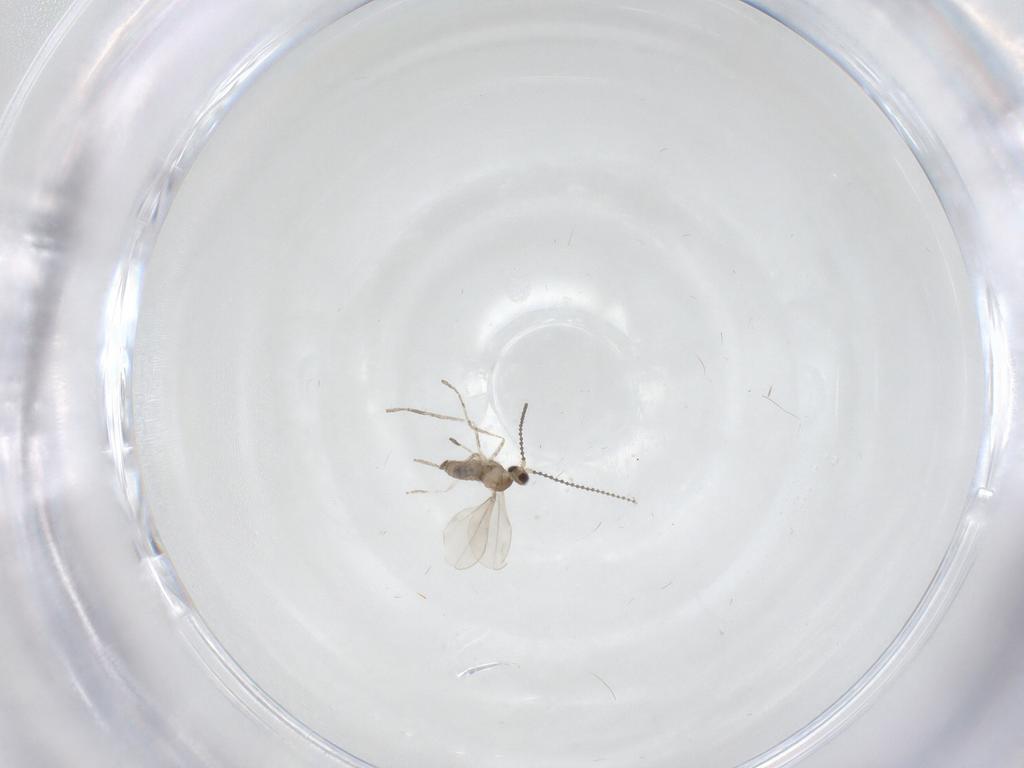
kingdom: Animalia
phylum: Arthropoda
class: Insecta
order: Diptera
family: Cecidomyiidae
